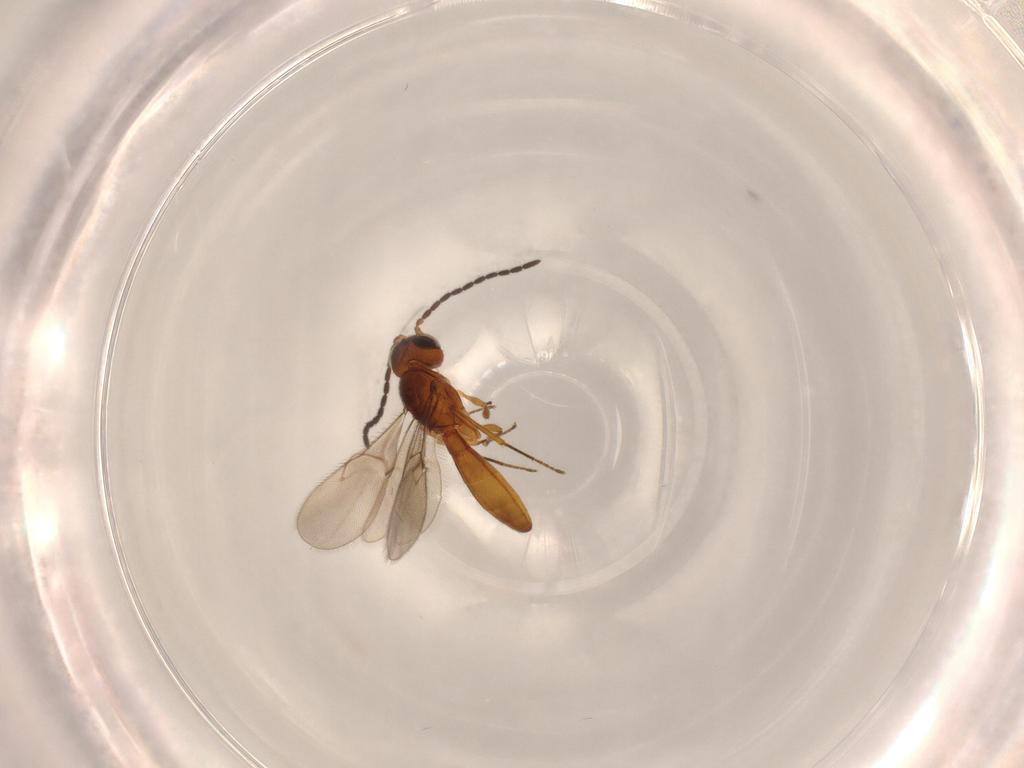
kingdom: Animalia
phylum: Arthropoda
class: Insecta
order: Hymenoptera
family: Scelionidae
